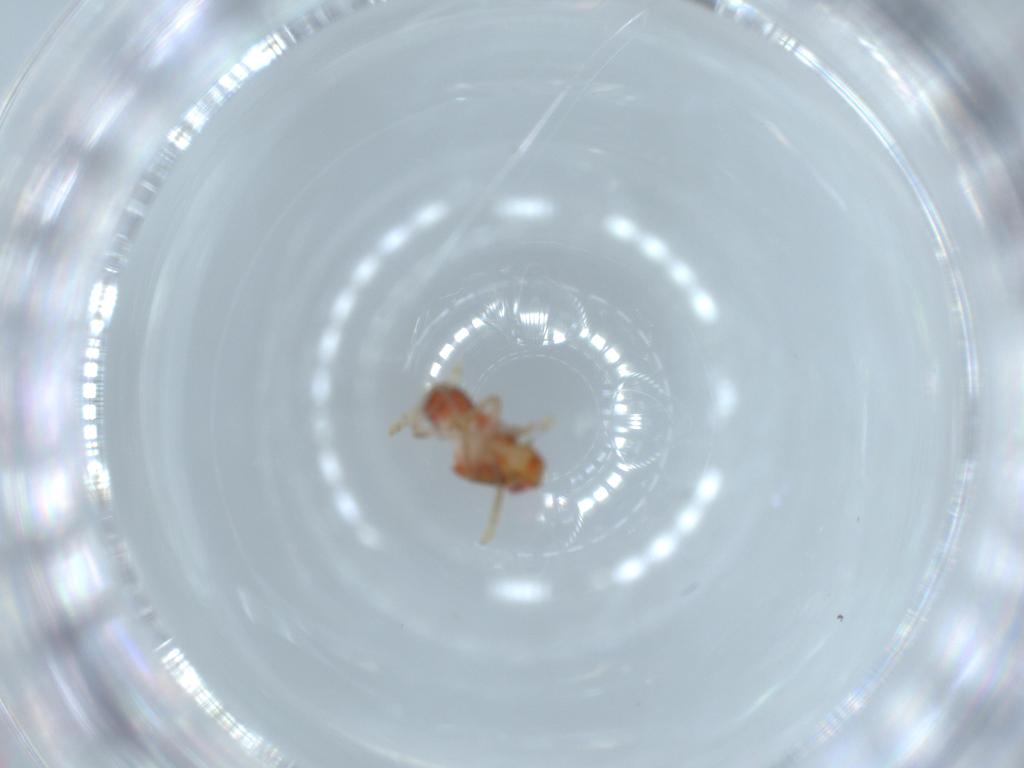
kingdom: Animalia
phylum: Arthropoda
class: Insecta
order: Hemiptera
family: Issidae
